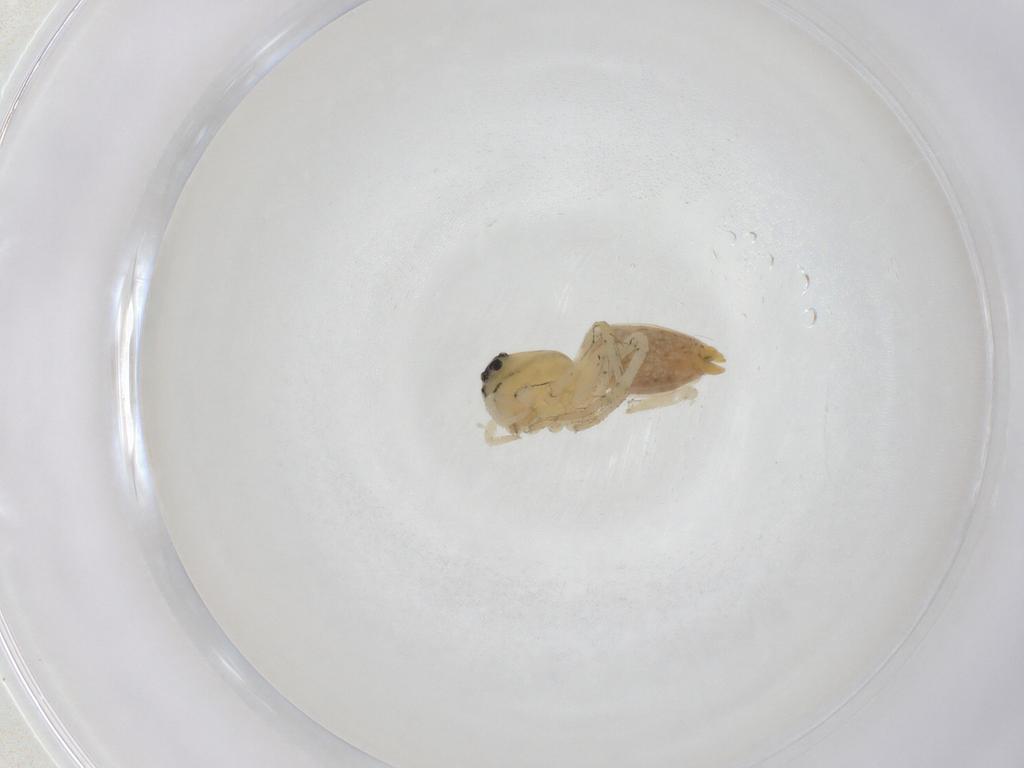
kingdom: Animalia
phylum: Arthropoda
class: Arachnida
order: Araneae
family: Oxyopidae
